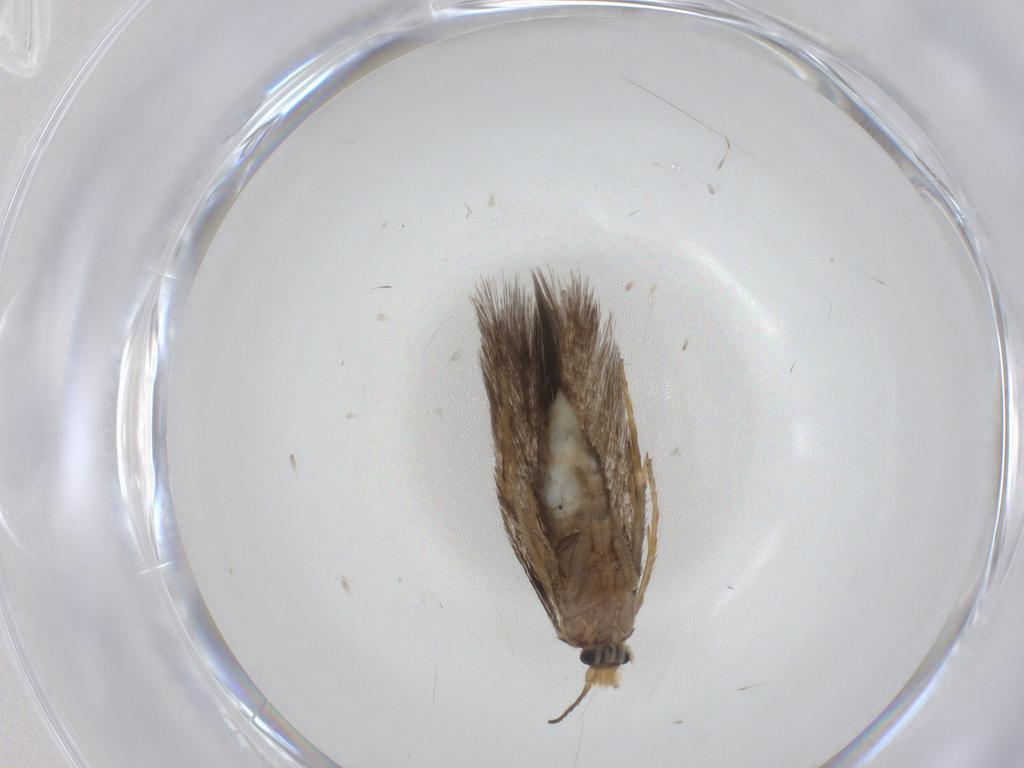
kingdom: Animalia
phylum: Arthropoda
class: Insecta
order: Lepidoptera
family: Nepticulidae
